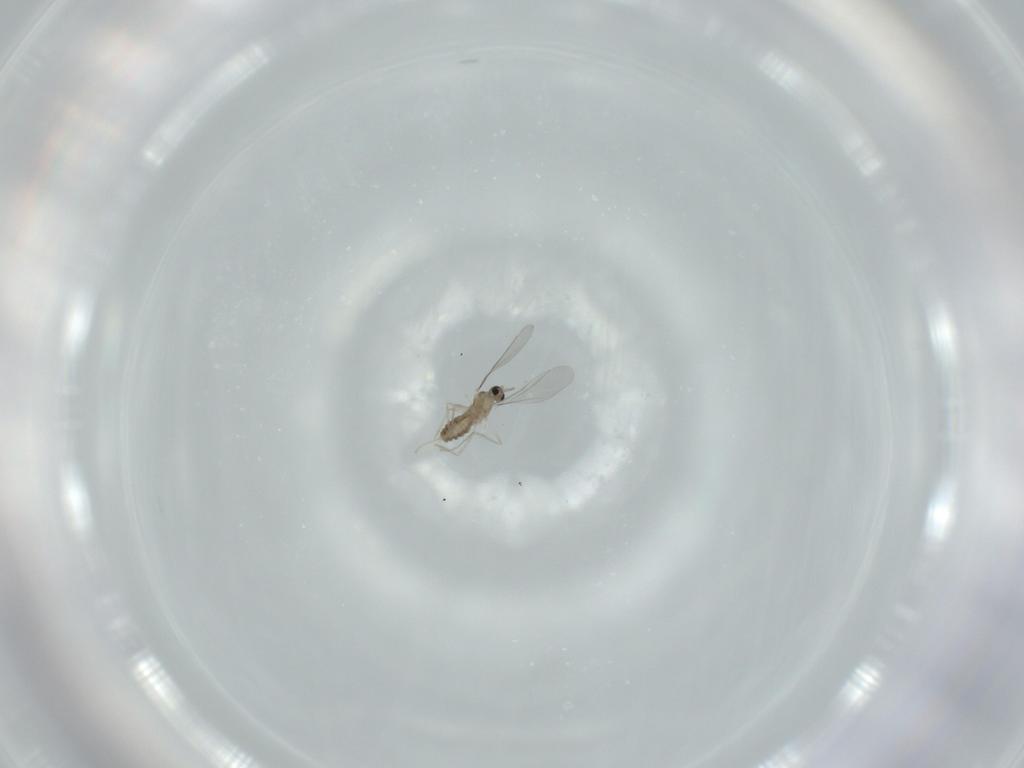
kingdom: Animalia
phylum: Arthropoda
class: Insecta
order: Diptera
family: Cecidomyiidae
